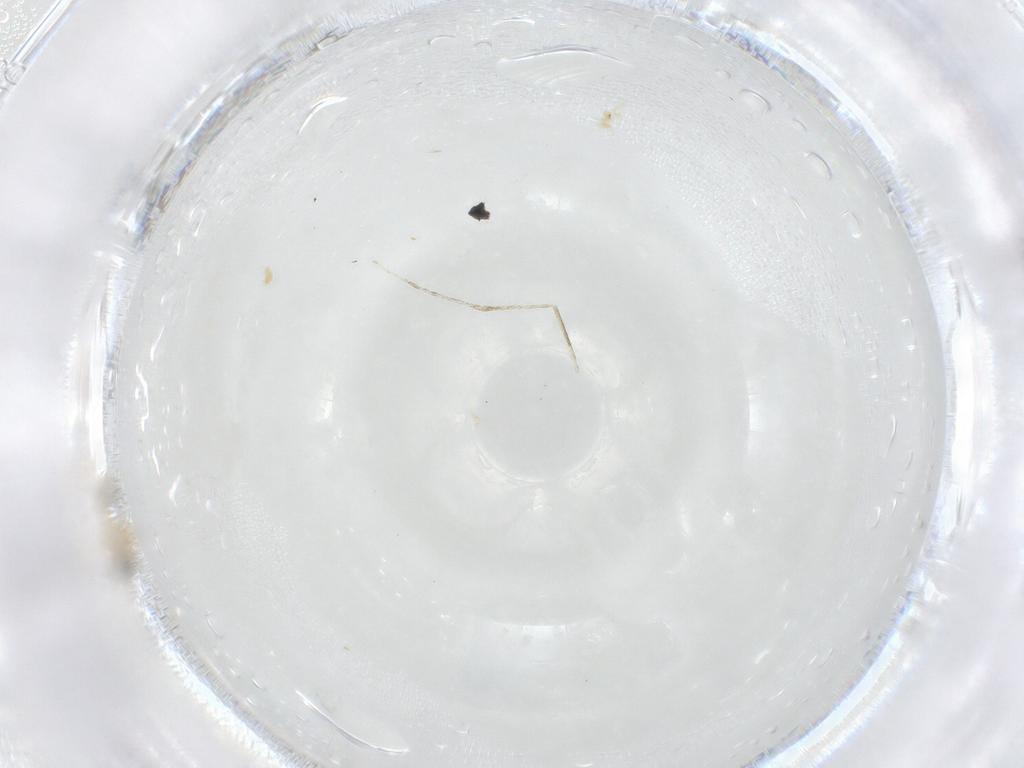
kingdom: Animalia
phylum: Arthropoda
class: Insecta
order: Diptera
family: Cecidomyiidae
